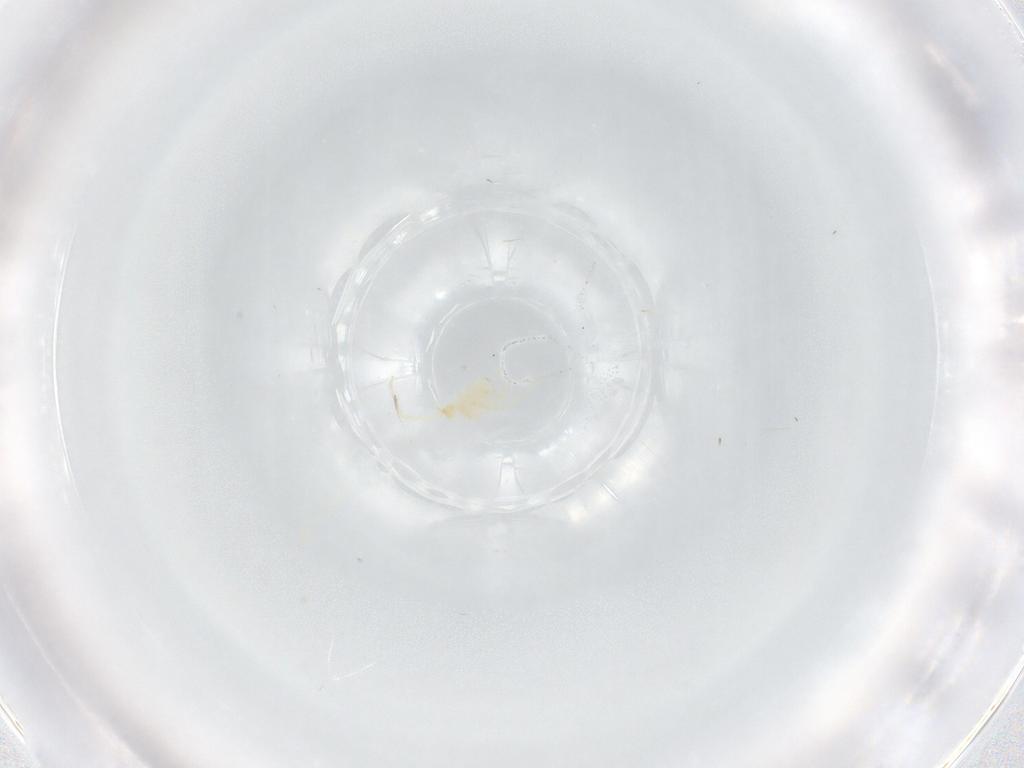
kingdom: Animalia
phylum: Arthropoda
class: Arachnida
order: Trombidiformes
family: Erythraeidae
